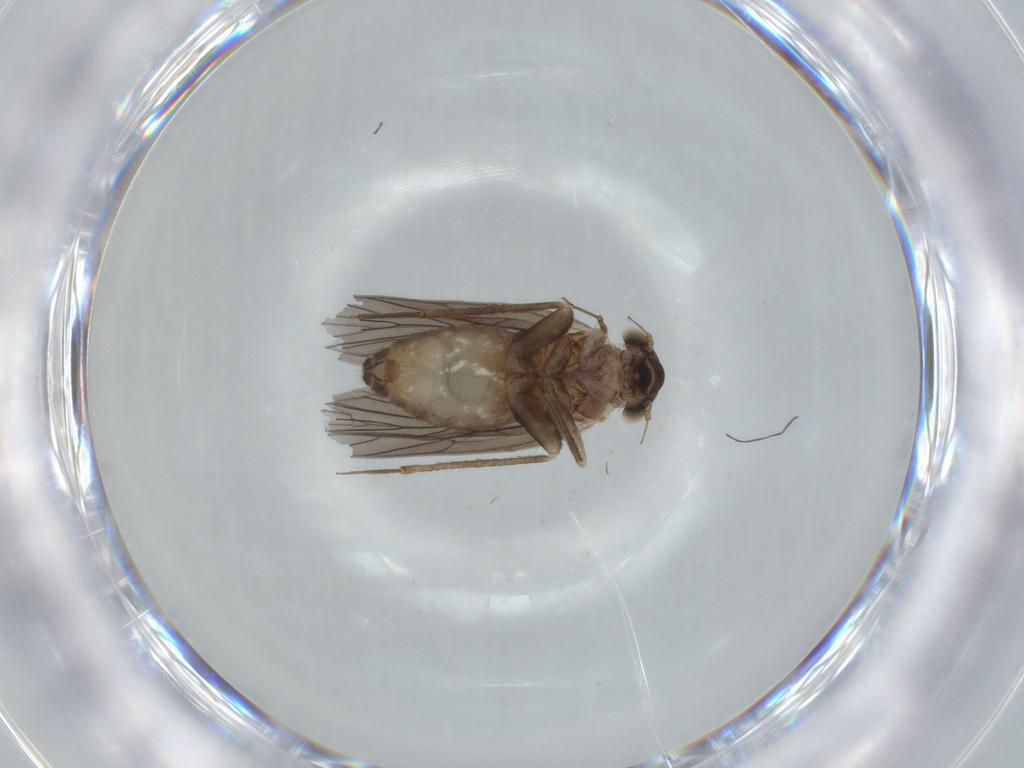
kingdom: Animalia
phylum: Arthropoda
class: Insecta
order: Psocodea
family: Lepidopsocidae
